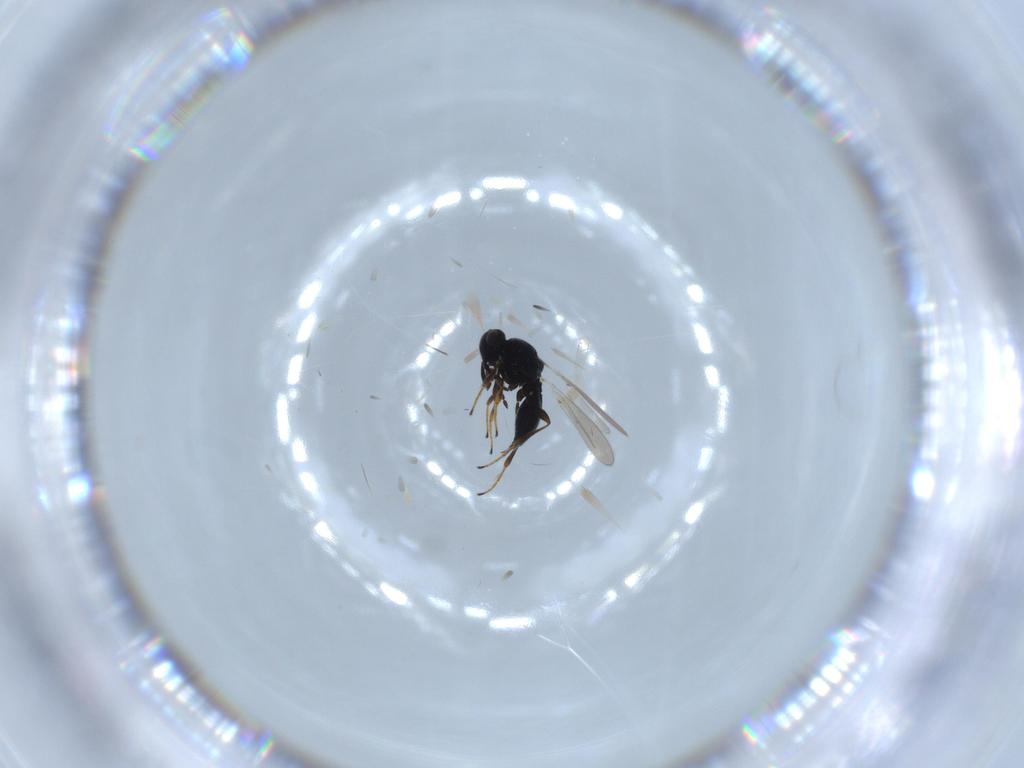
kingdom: Animalia
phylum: Arthropoda
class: Insecta
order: Hymenoptera
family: Platygastridae
